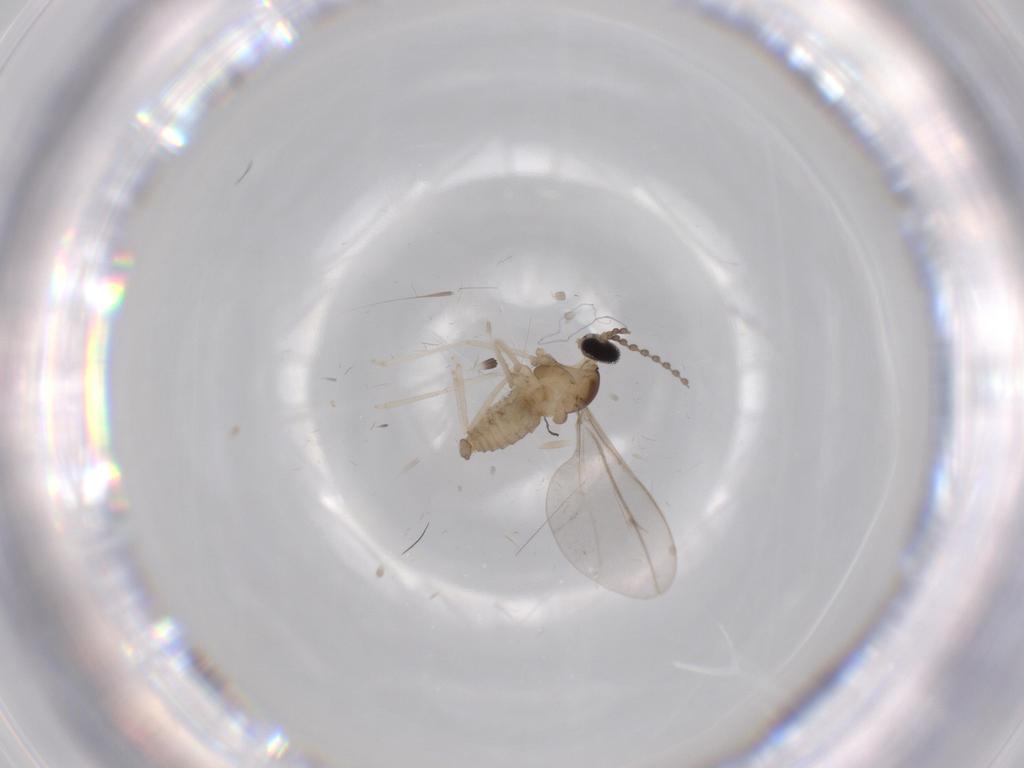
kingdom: Animalia
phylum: Arthropoda
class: Insecta
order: Diptera
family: Cecidomyiidae
